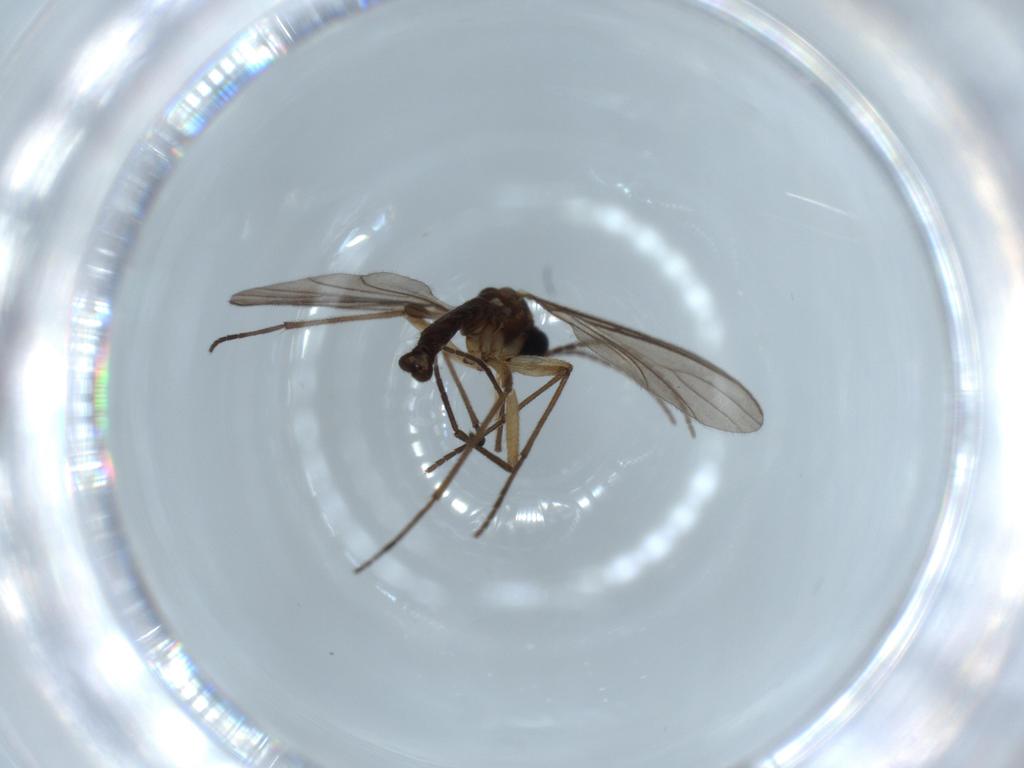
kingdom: Animalia
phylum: Arthropoda
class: Insecta
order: Diptera
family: Sciaridae
